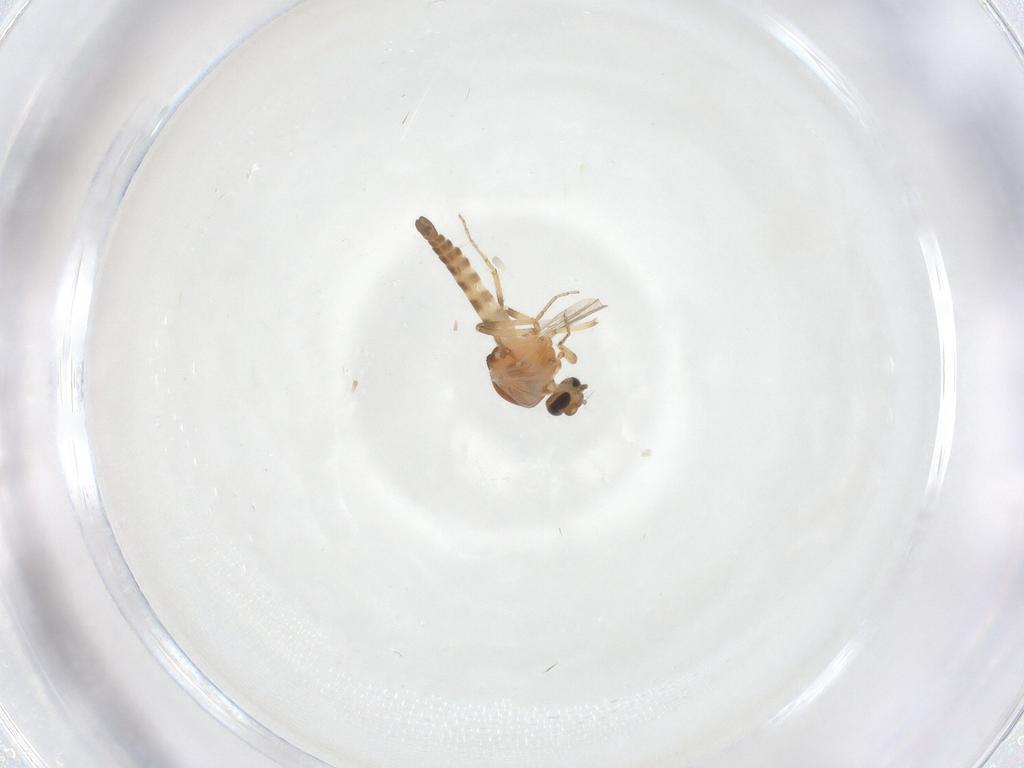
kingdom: Animalia
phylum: Arthropoda
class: Insecta
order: Diptera
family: Ceratopogonidae
